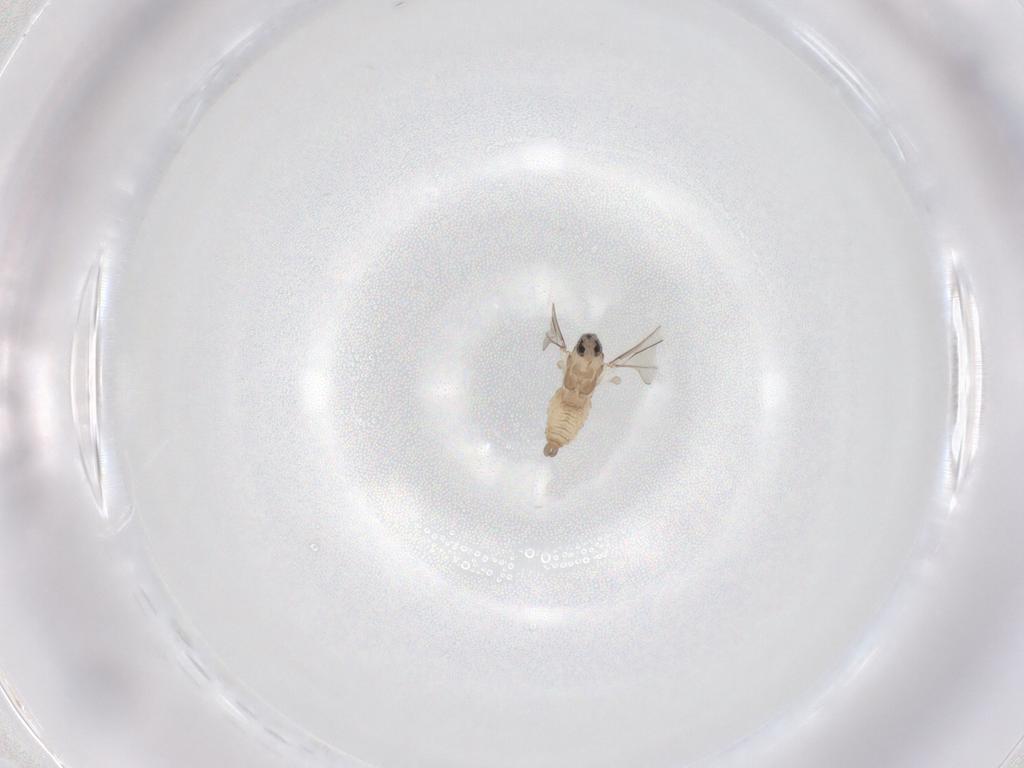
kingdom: Animalia
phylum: Arthropoda
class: Insecta
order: Diptera
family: Cecidomyiidae
